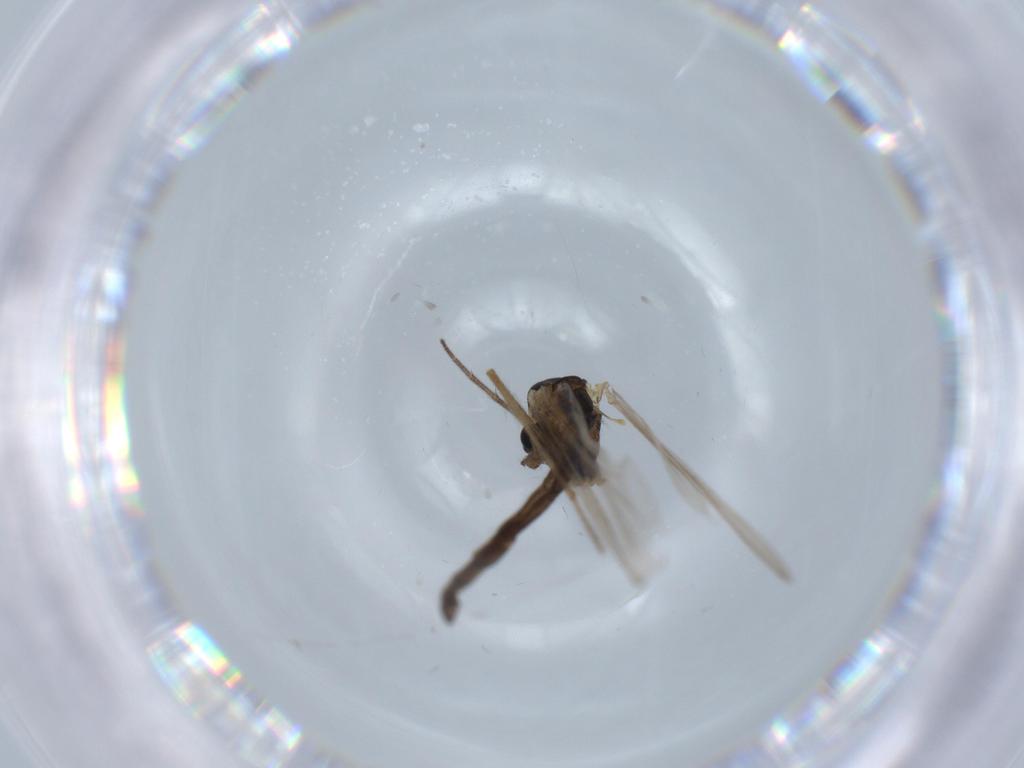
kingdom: Animalia
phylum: Arthropoda
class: Insecta
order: Diptera
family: Chironomidae
